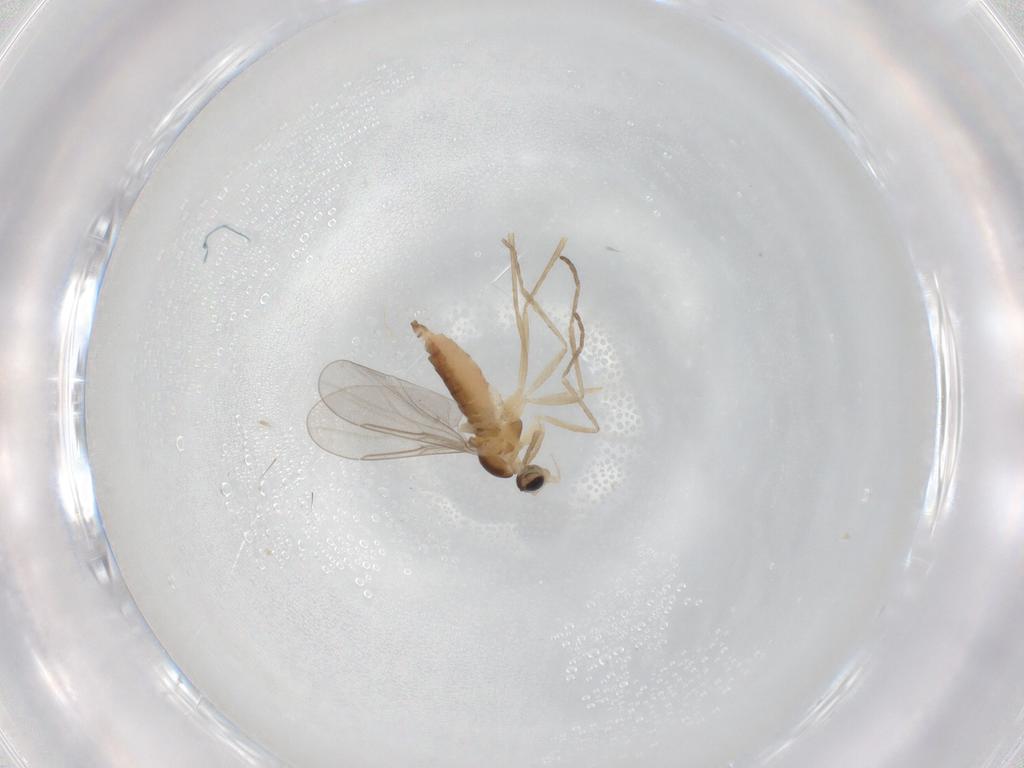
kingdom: Animalia
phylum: Arthropoda
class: Insecta
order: Diptera
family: Cecidomyiidae
